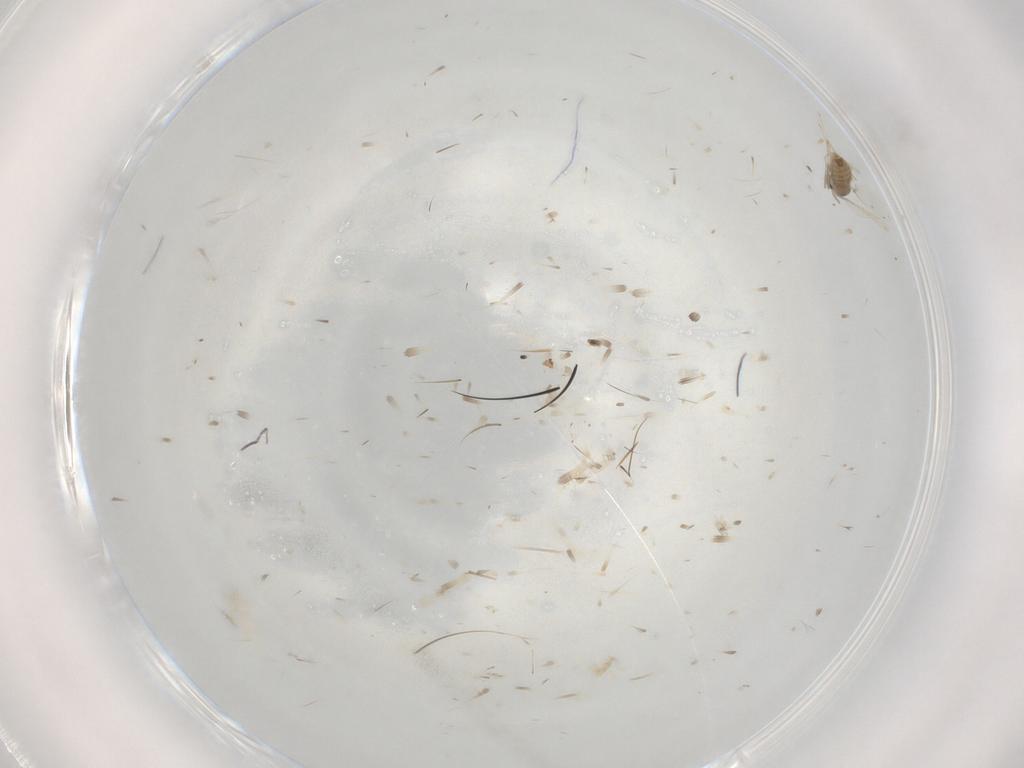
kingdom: Animalia
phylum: Arthropoda
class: Insecta
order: Diptera
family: Cecidomyiidae
